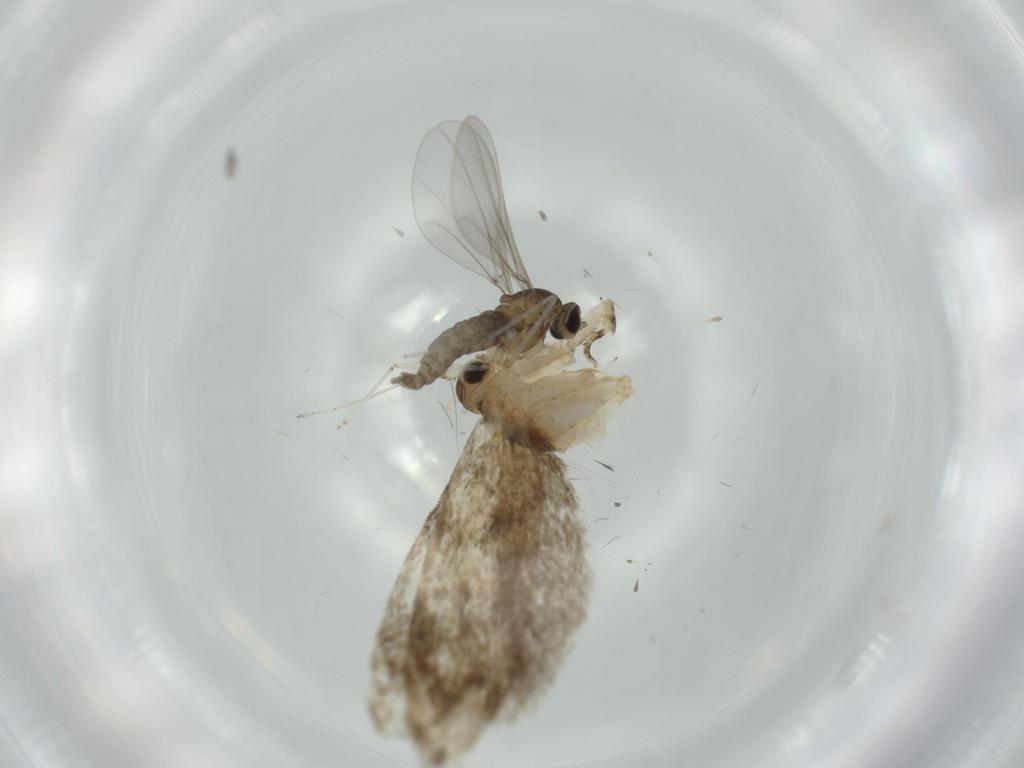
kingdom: Animalia
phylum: Arthropoda
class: Insecta
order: Lepidoptera
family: Tineidae
